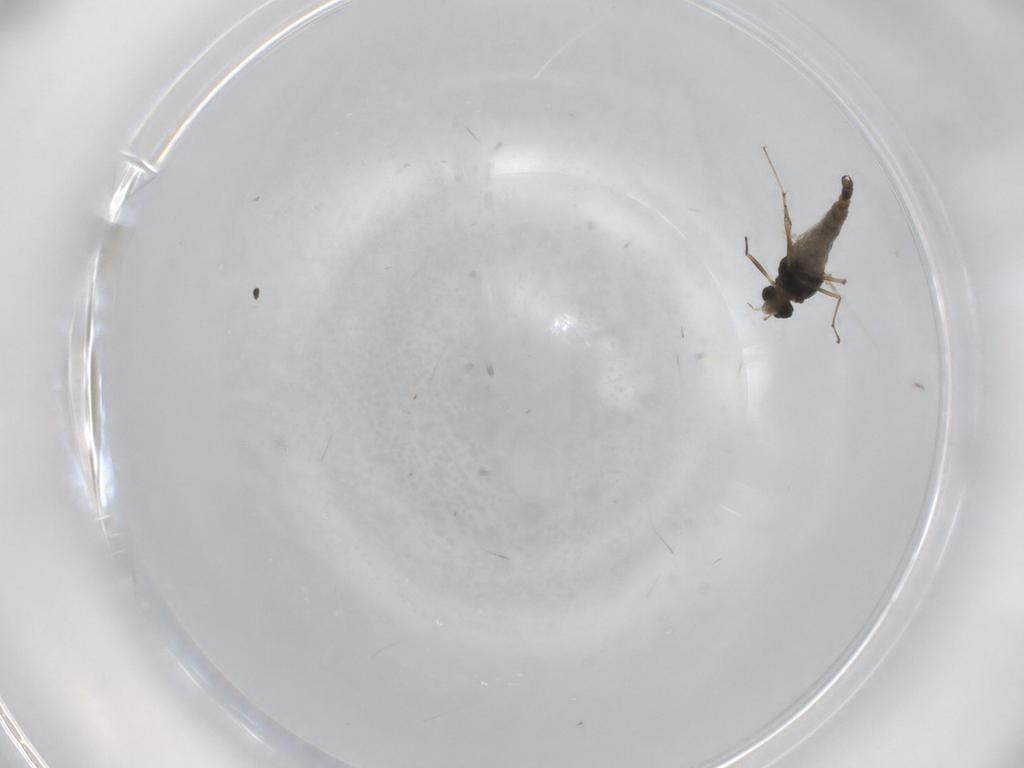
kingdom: Animalia
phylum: Arthropoda
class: Insecta
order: Diptera
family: Chironomidae
